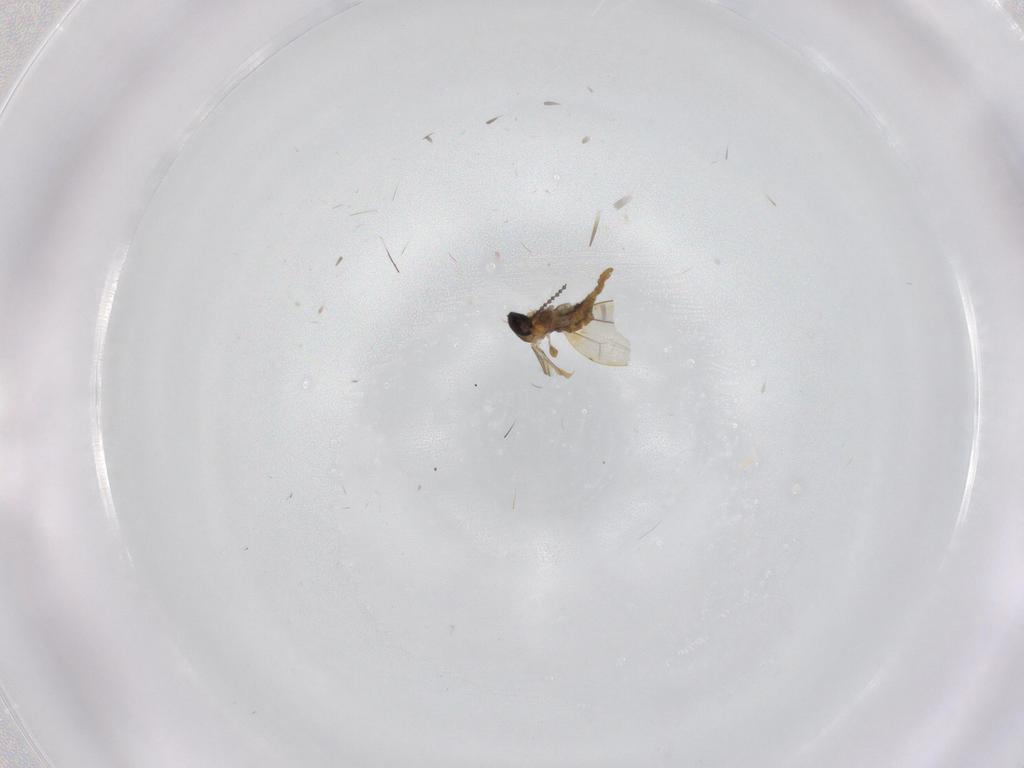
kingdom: Animalia
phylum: Arthropoda
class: Insecta
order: Diptera
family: Cecidomyiidae
